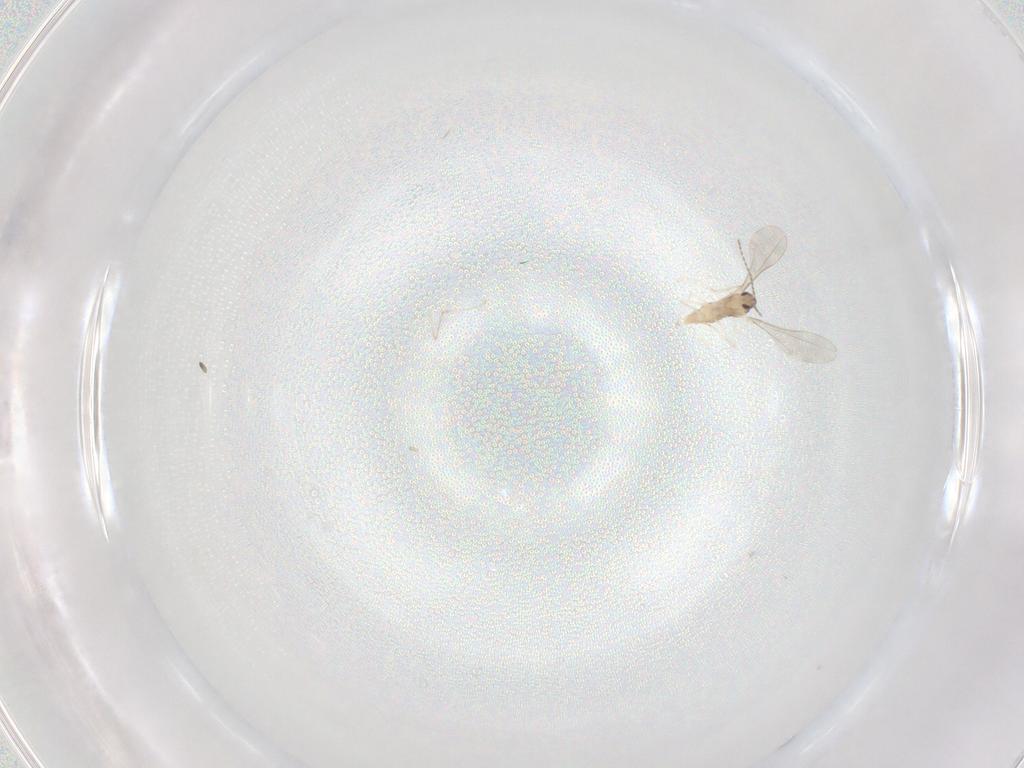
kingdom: Animalia
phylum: Arthropoda
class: Insecta
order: Diptera
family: Cecidomyiidae
